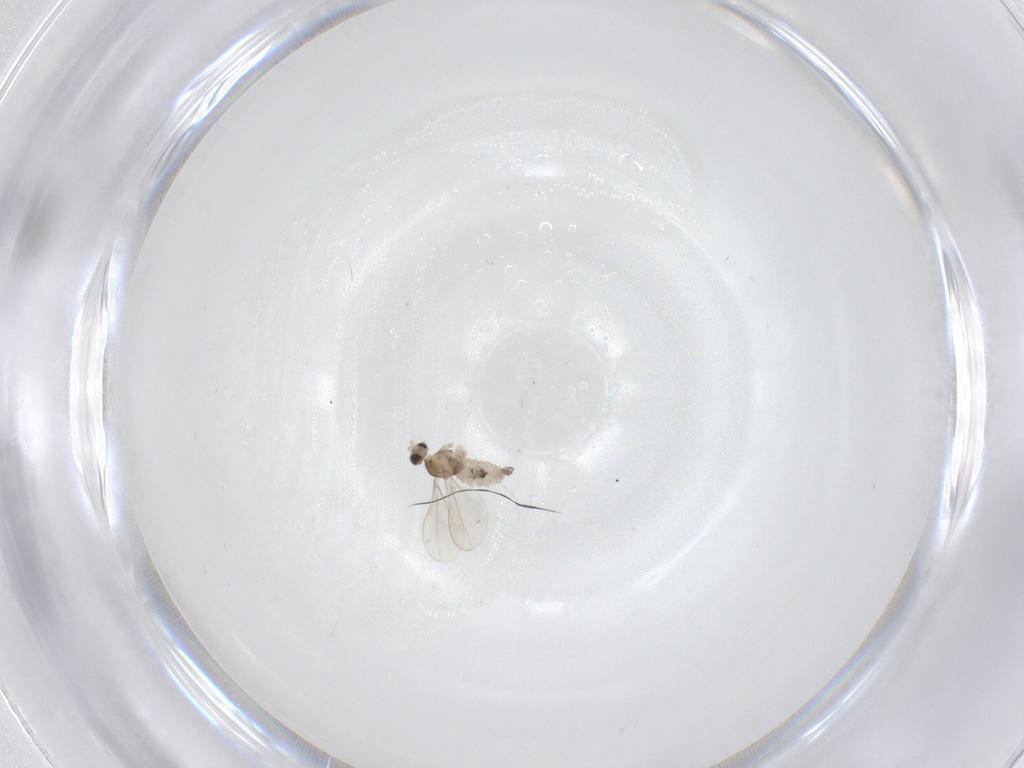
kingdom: Animalia
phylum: Arthropoda
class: Insecta
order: Diptera
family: Cecidomyiidae
